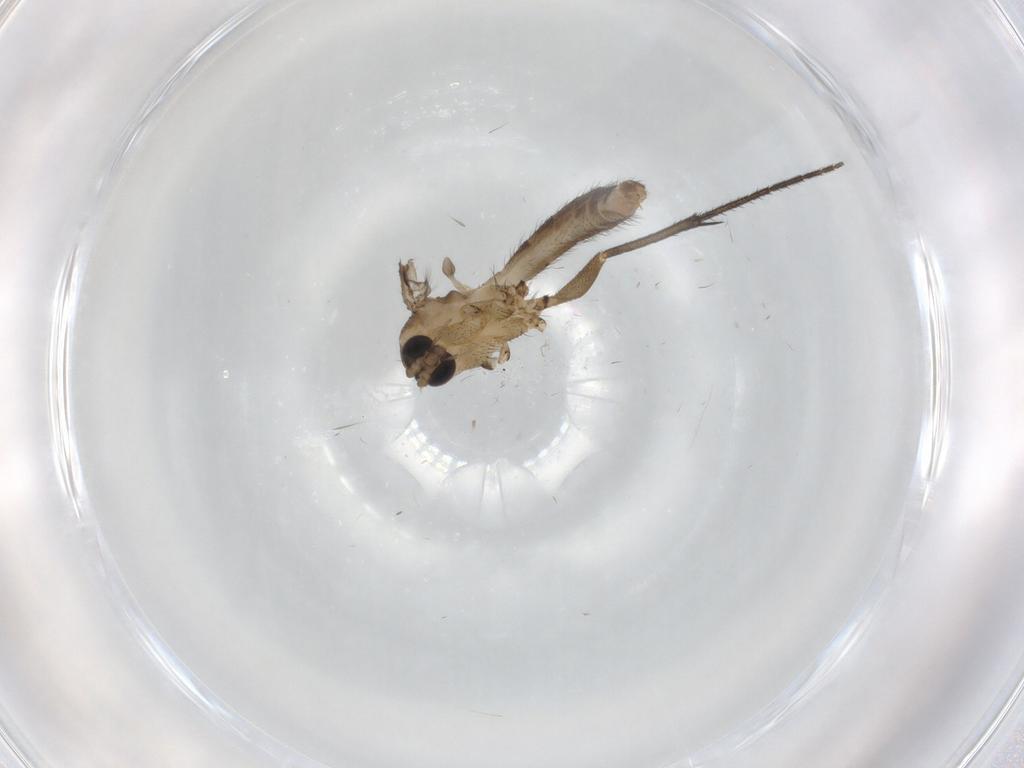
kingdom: Animalia
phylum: Arthropoda
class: Insecta
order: Diptera
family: Mycetophilidae
